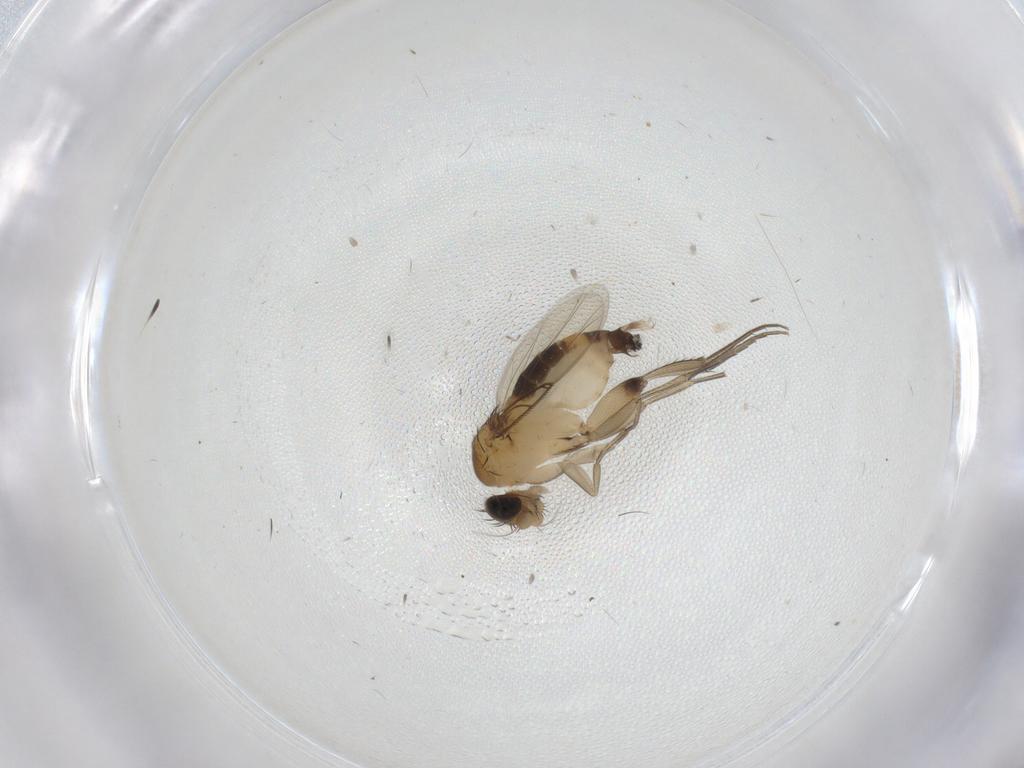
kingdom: Animalia
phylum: Arthropoda
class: Insecta
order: Diptera
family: Phoridae
